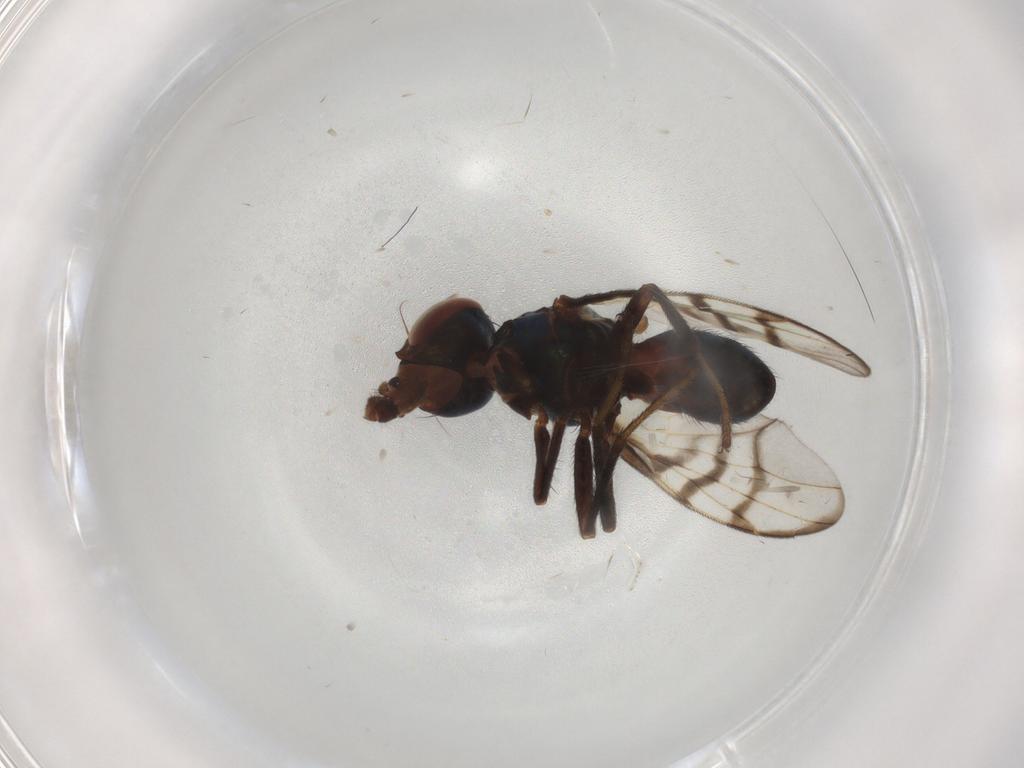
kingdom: Animalia
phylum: Arthropoda
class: Insecta
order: Diptera
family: Platystomatidae
